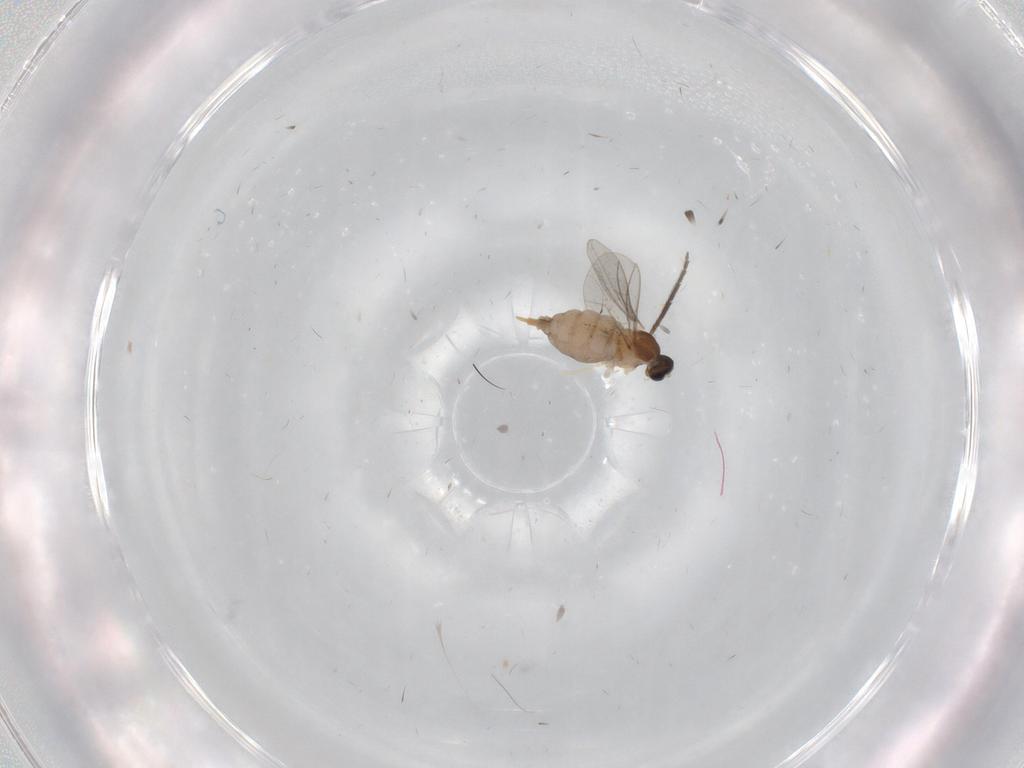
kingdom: Animalia
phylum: Arthropoda
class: Insecta
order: Diptera
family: Cecidomyiidae
